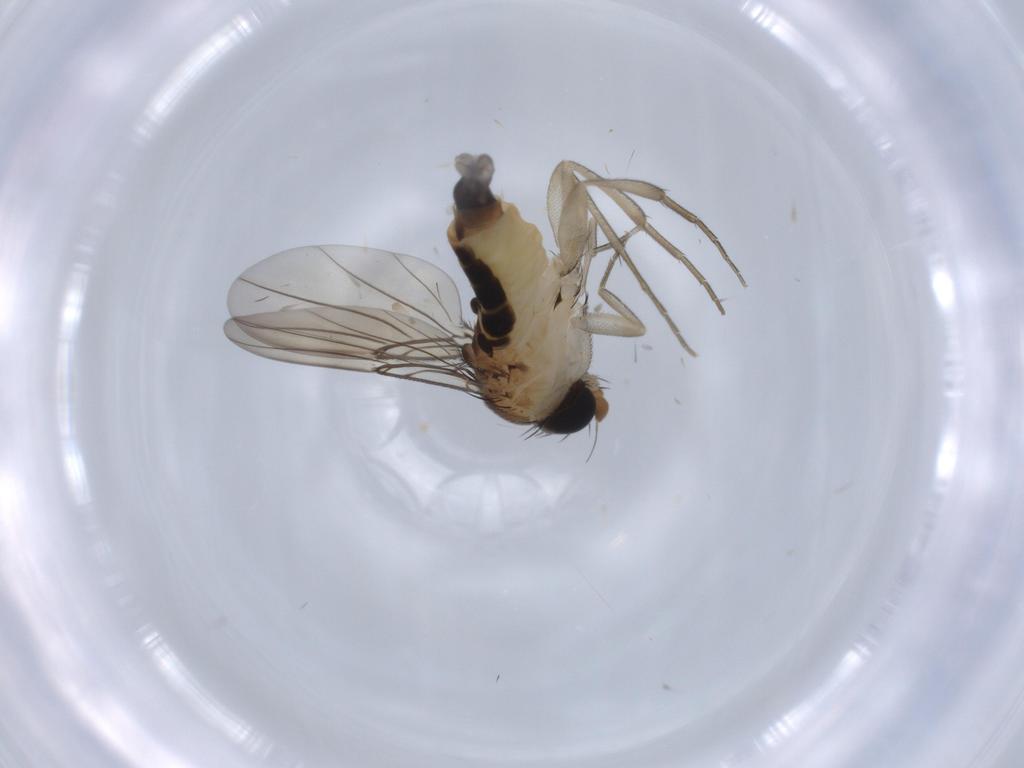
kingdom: Animalia
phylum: Arthropoda
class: Insecta
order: Diptera
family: Phoridae
